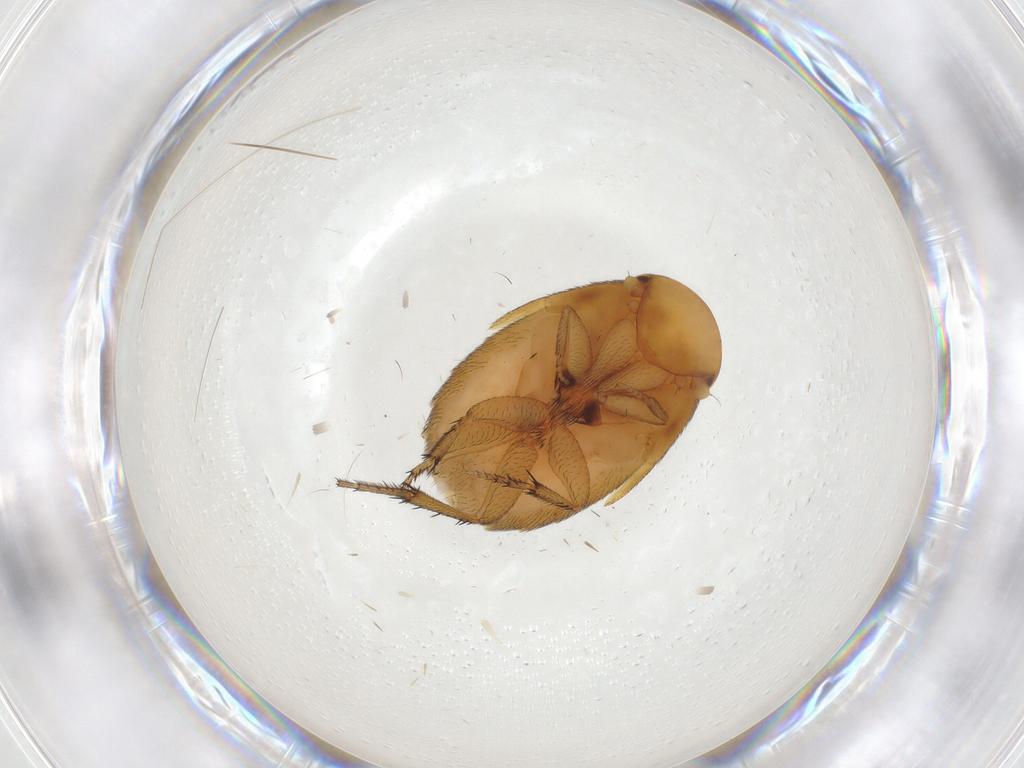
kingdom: Animalia
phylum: Arthropoda
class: Insecta
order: Diptera
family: Phoridae
